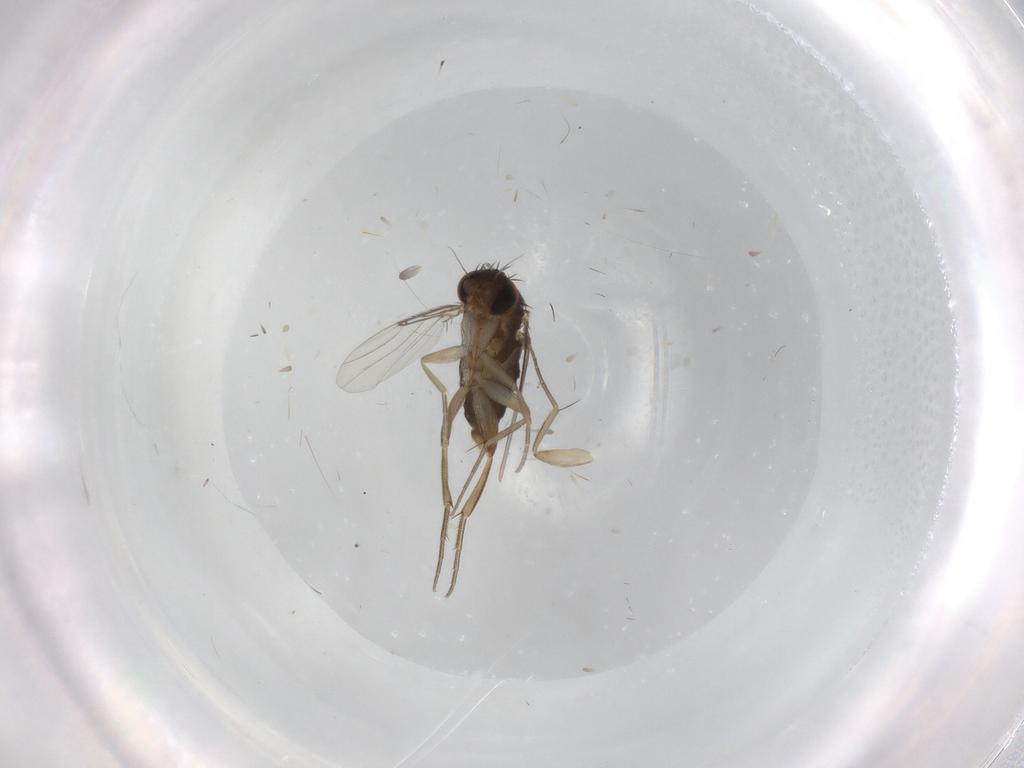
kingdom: Animalia
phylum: Arthropoda
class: Insecta
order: Diptera
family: Phoridae
